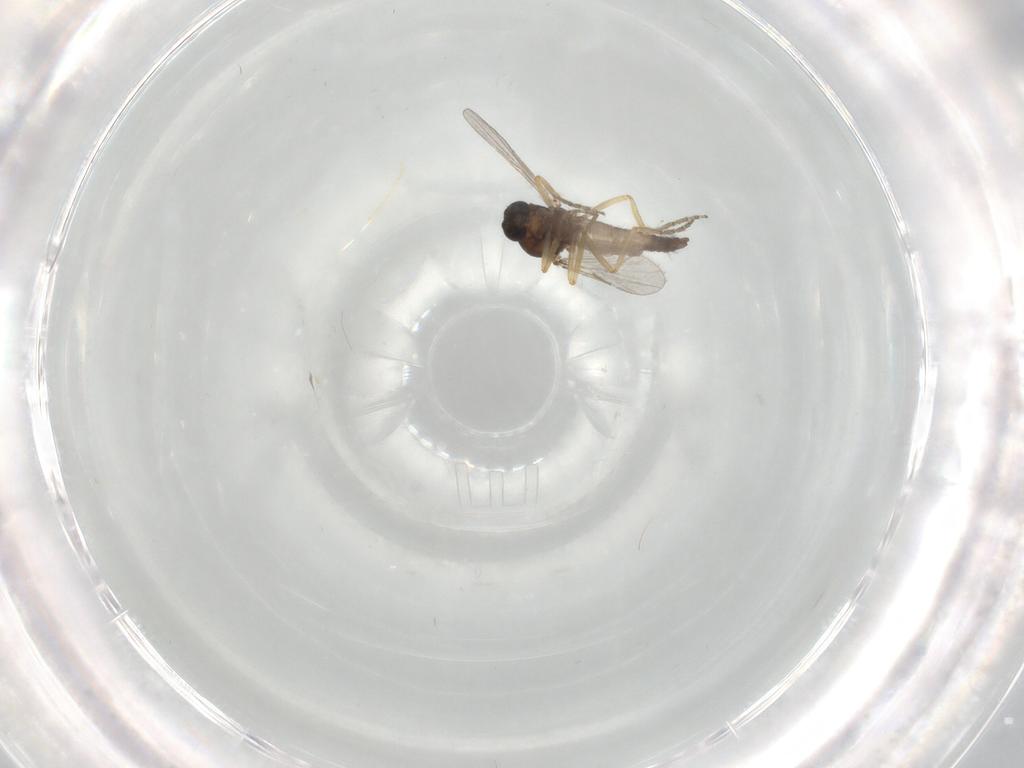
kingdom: Animalia
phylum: Arthropoda
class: Insecta
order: Diptera
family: Ceratopogonidae
